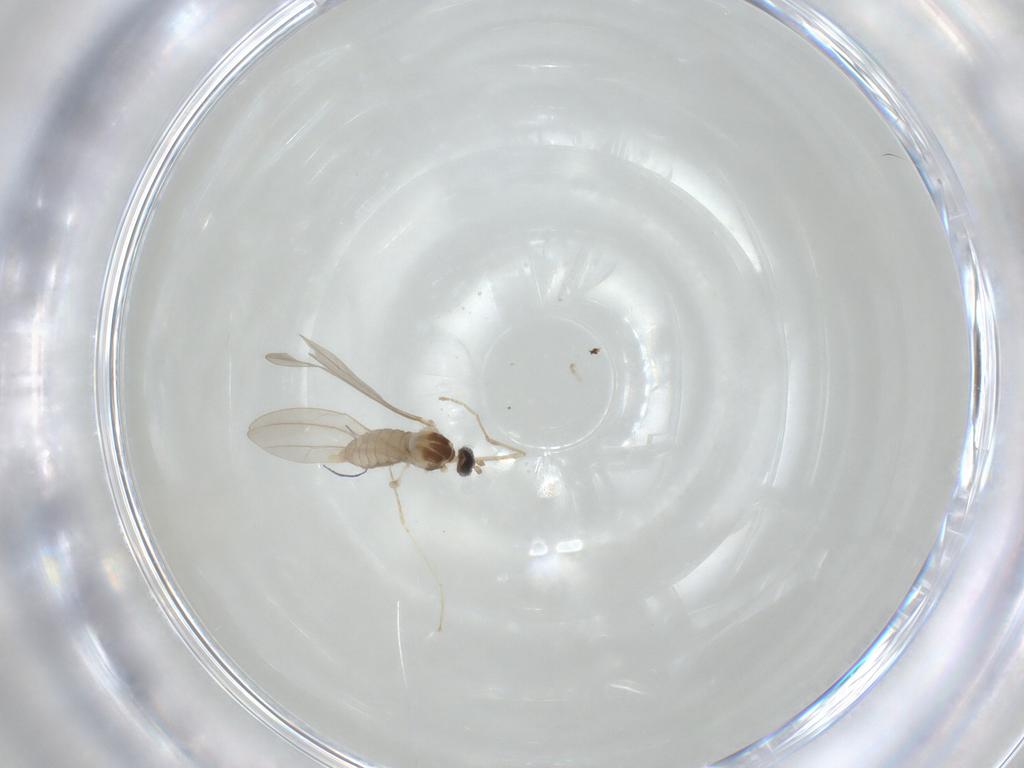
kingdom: Animalia
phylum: Arthropoda
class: Insecta
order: Diptera
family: Cecidomyiidae
